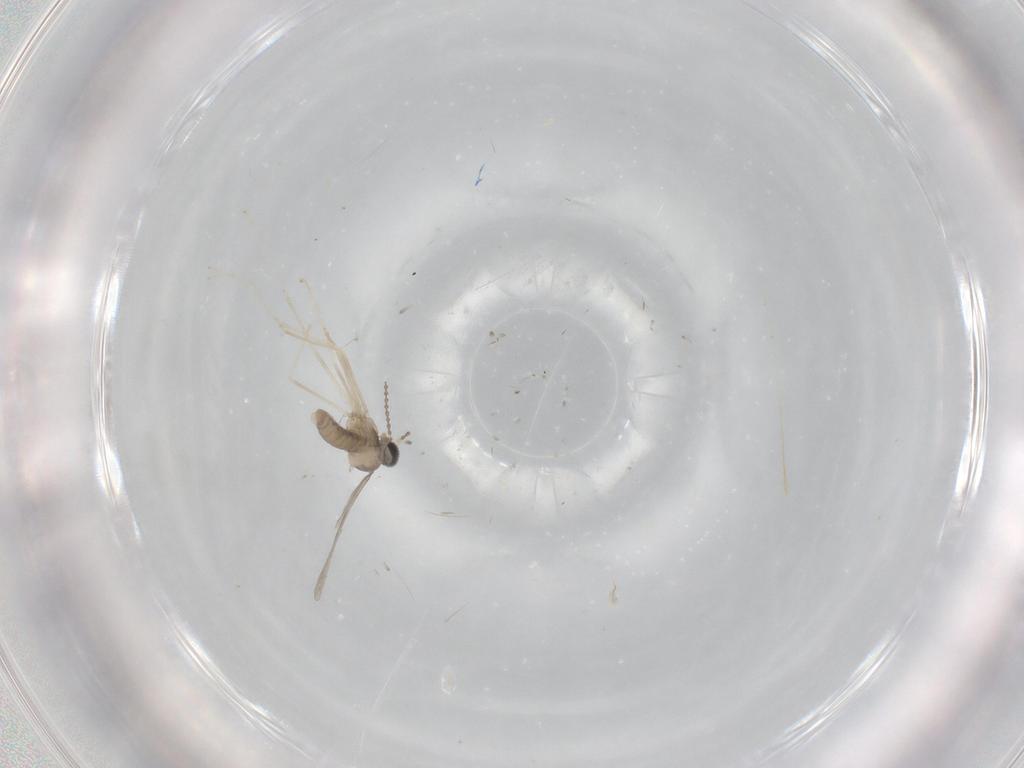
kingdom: Animalia
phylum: Arthropoda
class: Insecta
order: Diptera
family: Cecidomyiidae
